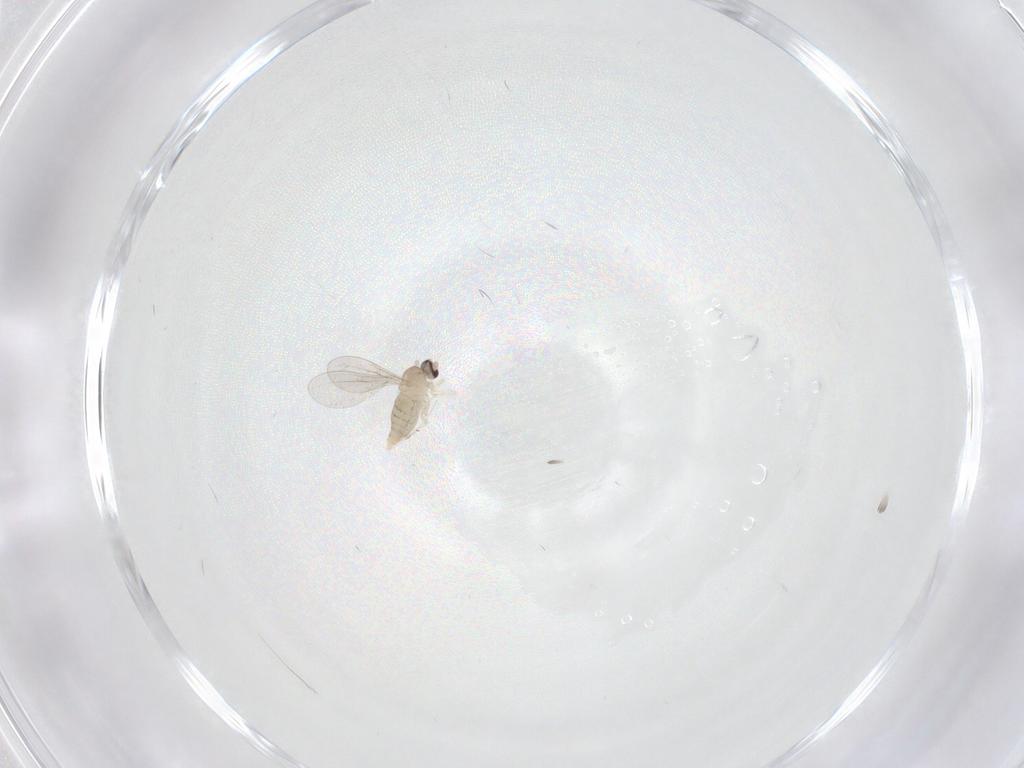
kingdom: Animalia
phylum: Arthropoda
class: Insecta
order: Diptera
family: Cecidomyiidae
